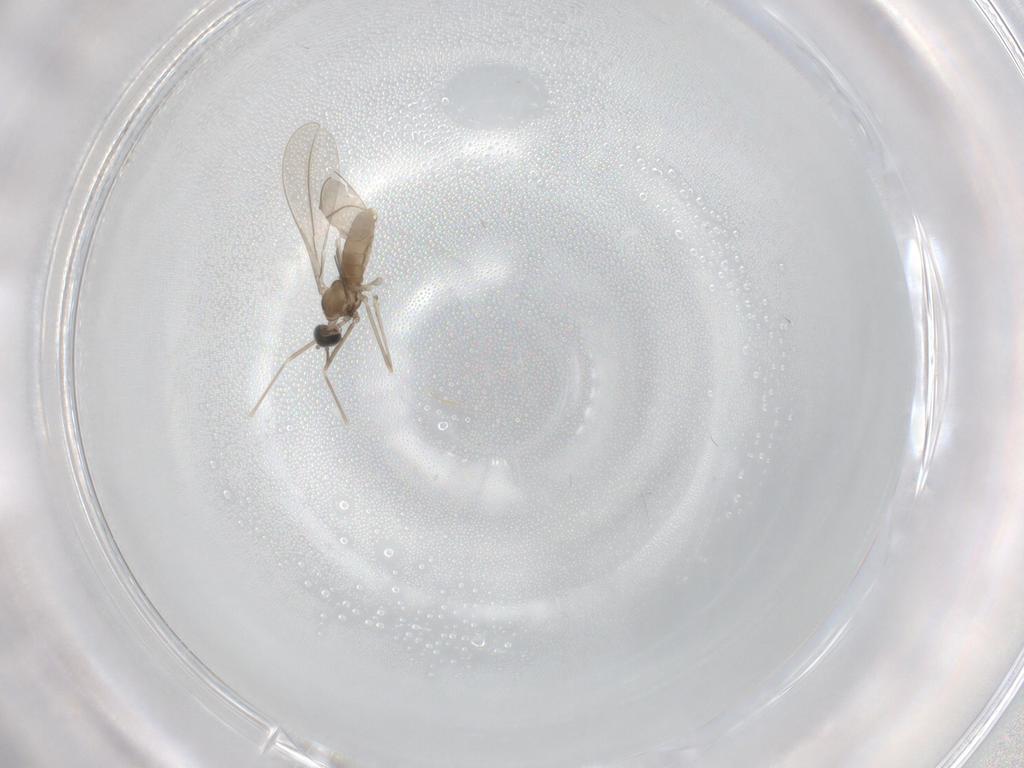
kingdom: Animalia
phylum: Arthropoda
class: Insecta
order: Diptera
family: Cecidomyiidae
